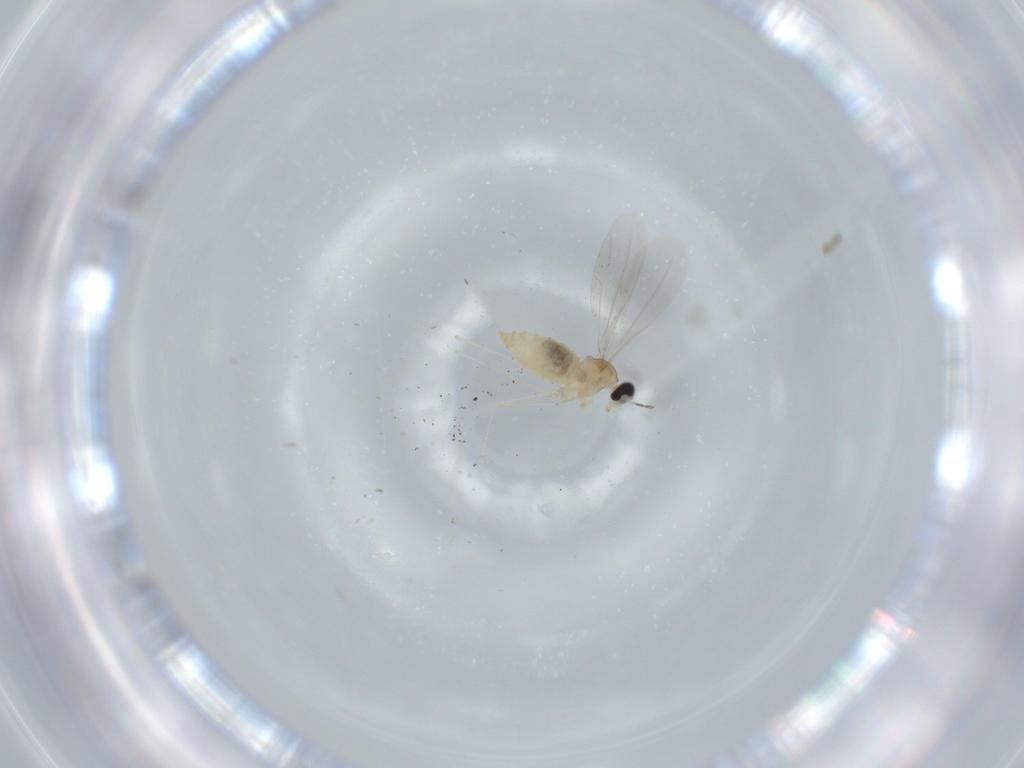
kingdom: Animalia
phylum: Arthropoda
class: Insecta
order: Diptera
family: Cecidomyiidae
